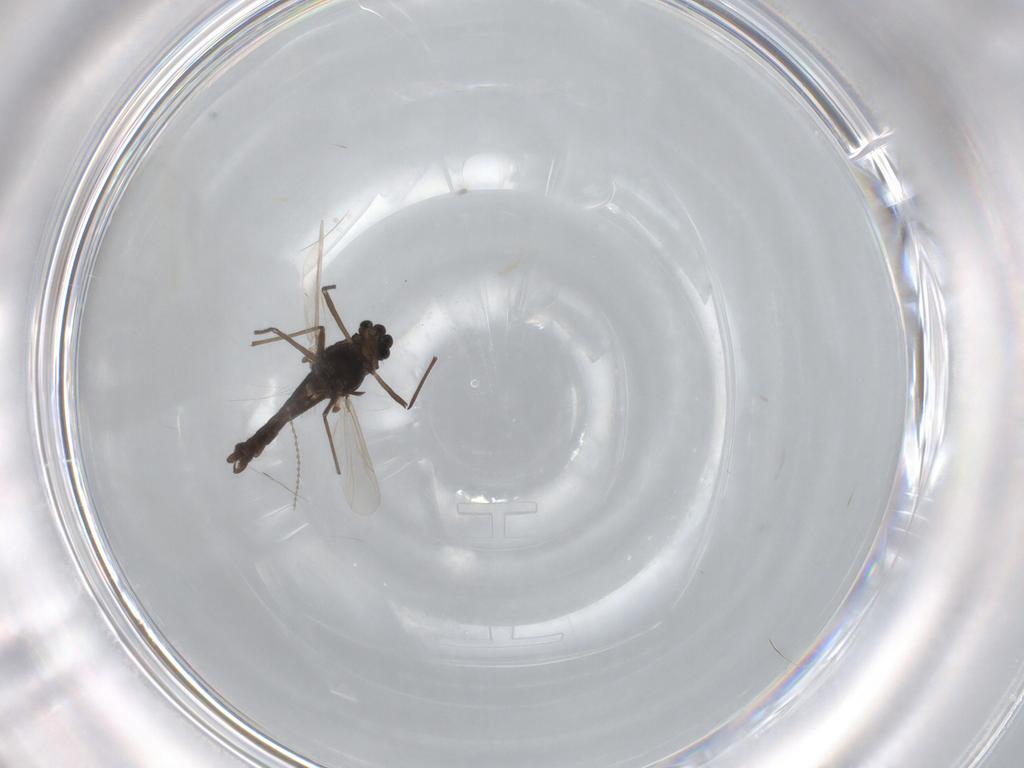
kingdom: Animalia
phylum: Arthropoda
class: Insecta
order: Diptera
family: Chironomidae
